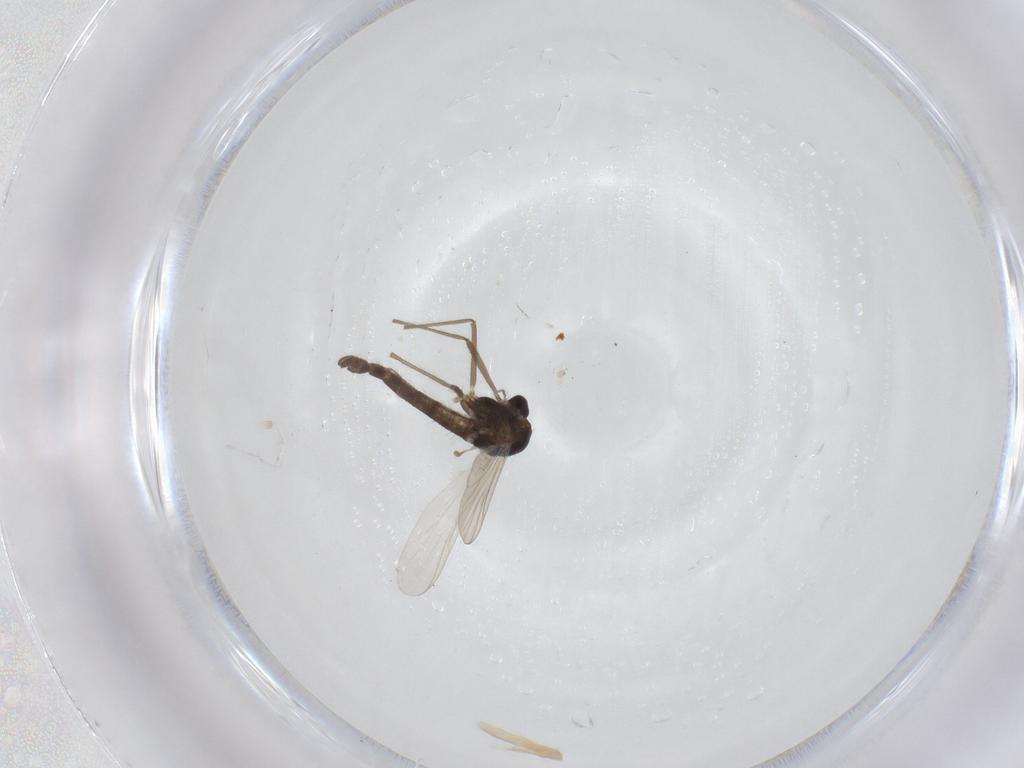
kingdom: Animalia
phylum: Arthropoda
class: Insecta
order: Diptera
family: Chironomidae
